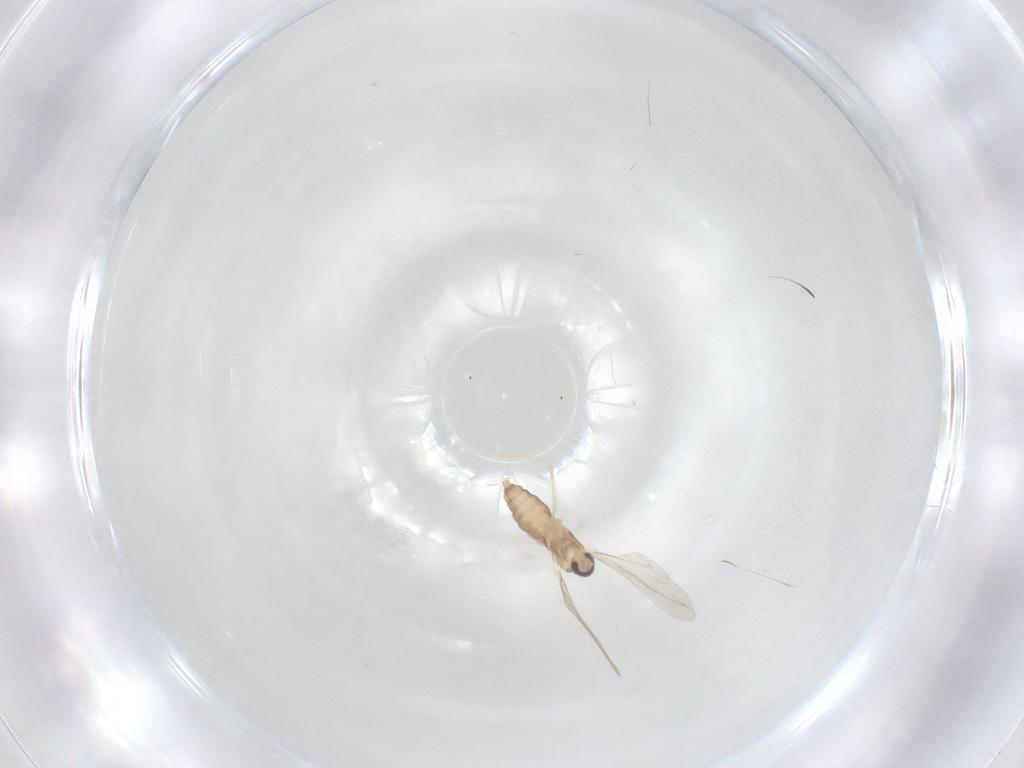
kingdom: Animalia
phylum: Arthropoda
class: Insecta
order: Diptera
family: Cecidomyiidae
